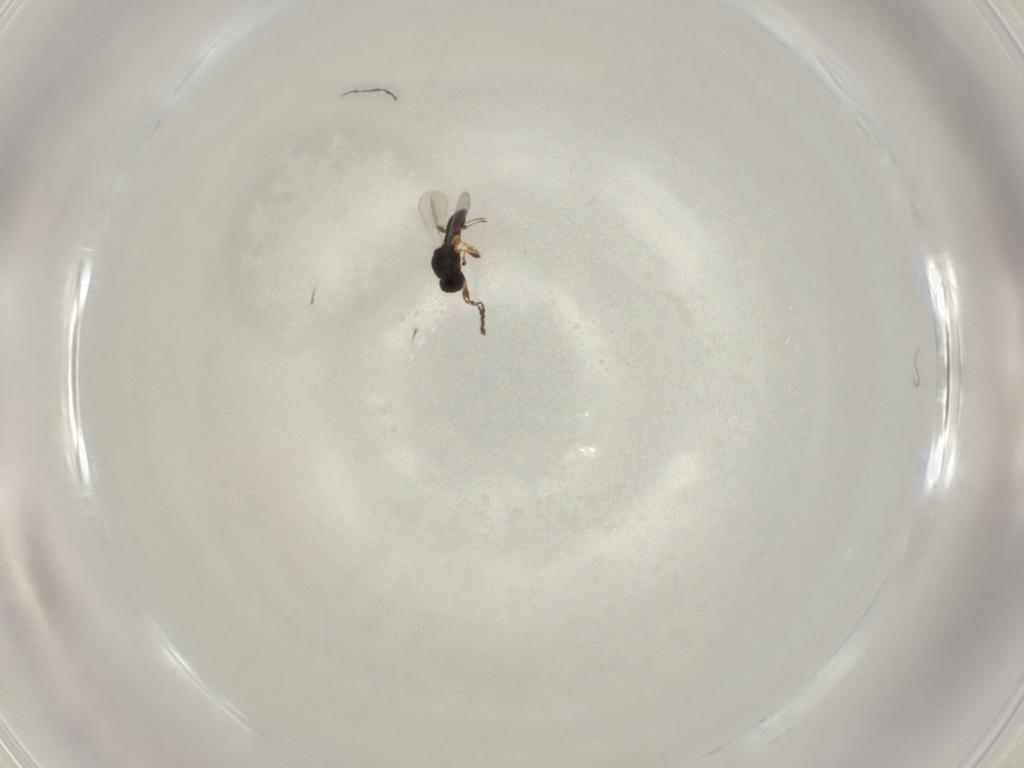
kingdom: Animalia
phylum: Arthropoda
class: Insecta
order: Hymenoptera
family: Platygastridae
